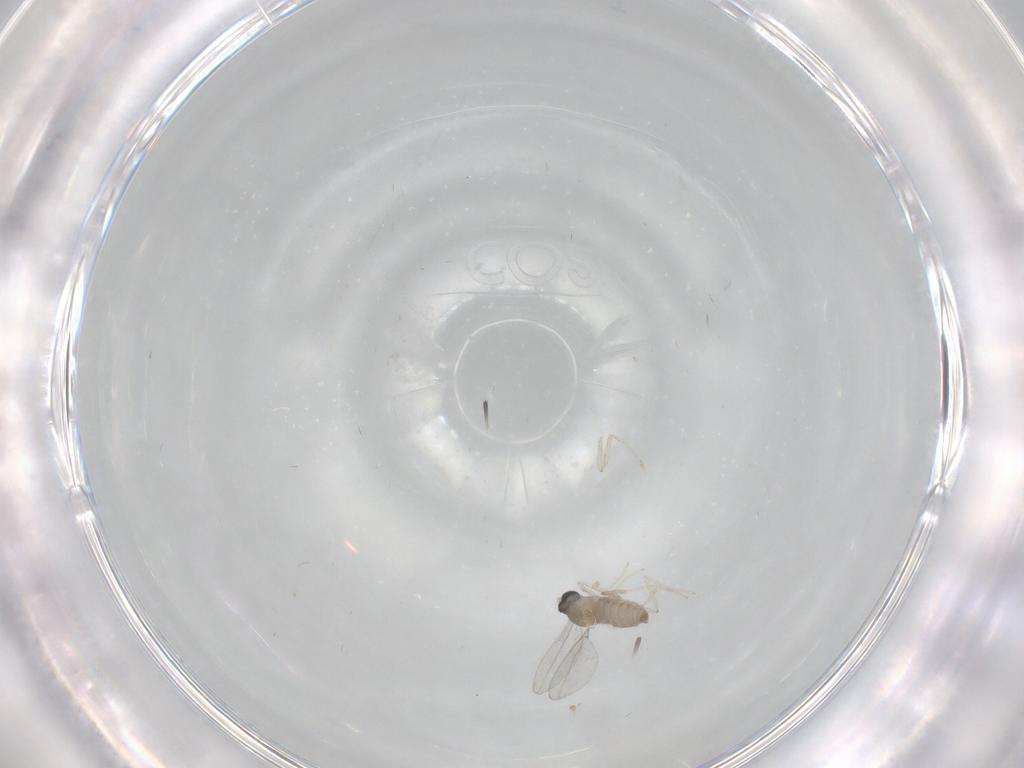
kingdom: Animalia
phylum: Arthropoda
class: Insecta
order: Diptera
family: Cecidomyiidae
